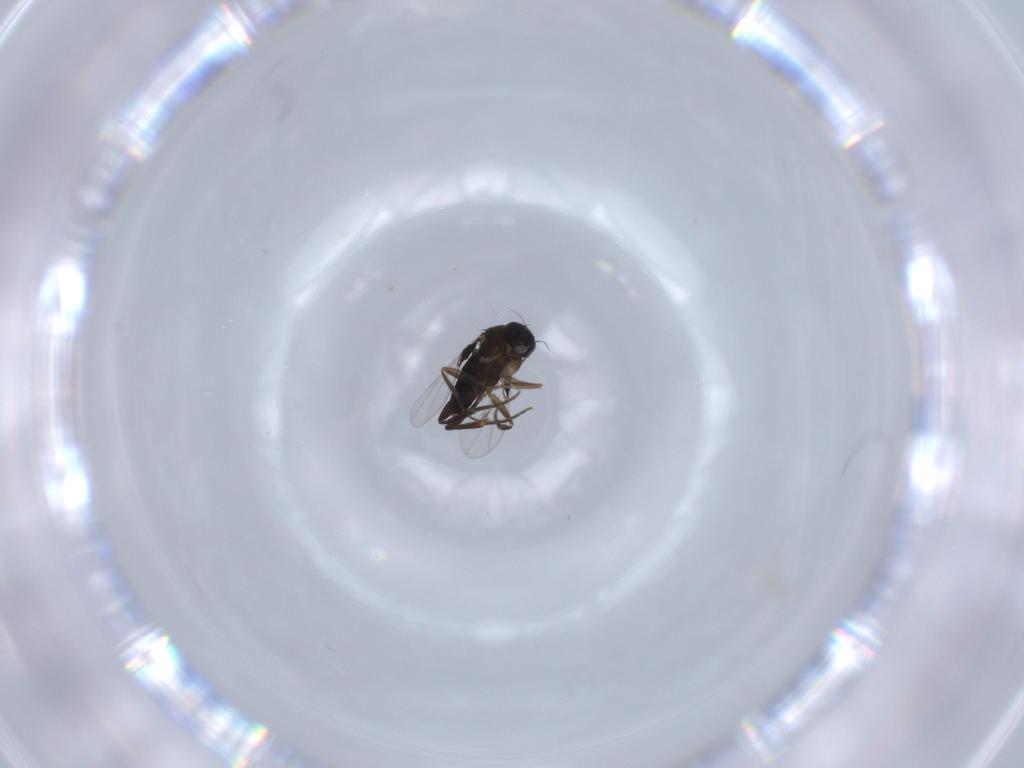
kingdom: Animalia
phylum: Arthropoda
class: Insecta
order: Diptera
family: Phoridae
